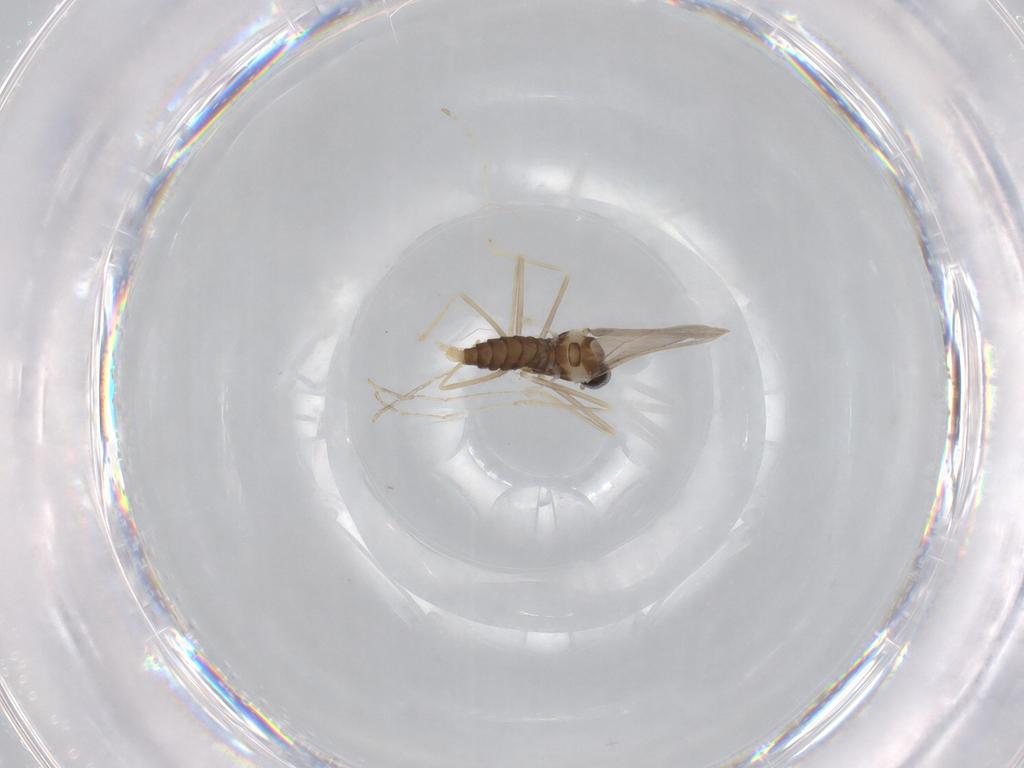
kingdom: Animalia
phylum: Arthropoda
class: Insecta
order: Diptera
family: Cecidomyiidae
